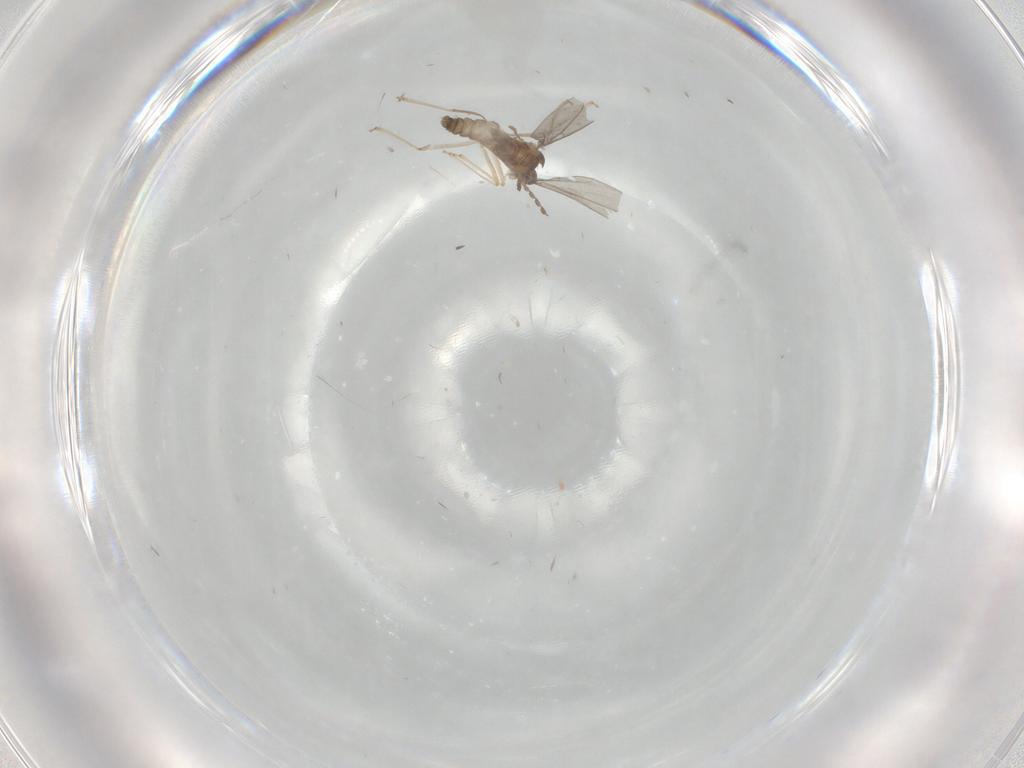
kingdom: Animalia
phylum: Arthropoda
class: Insecta
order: Diptera
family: Cecidomyiidae
